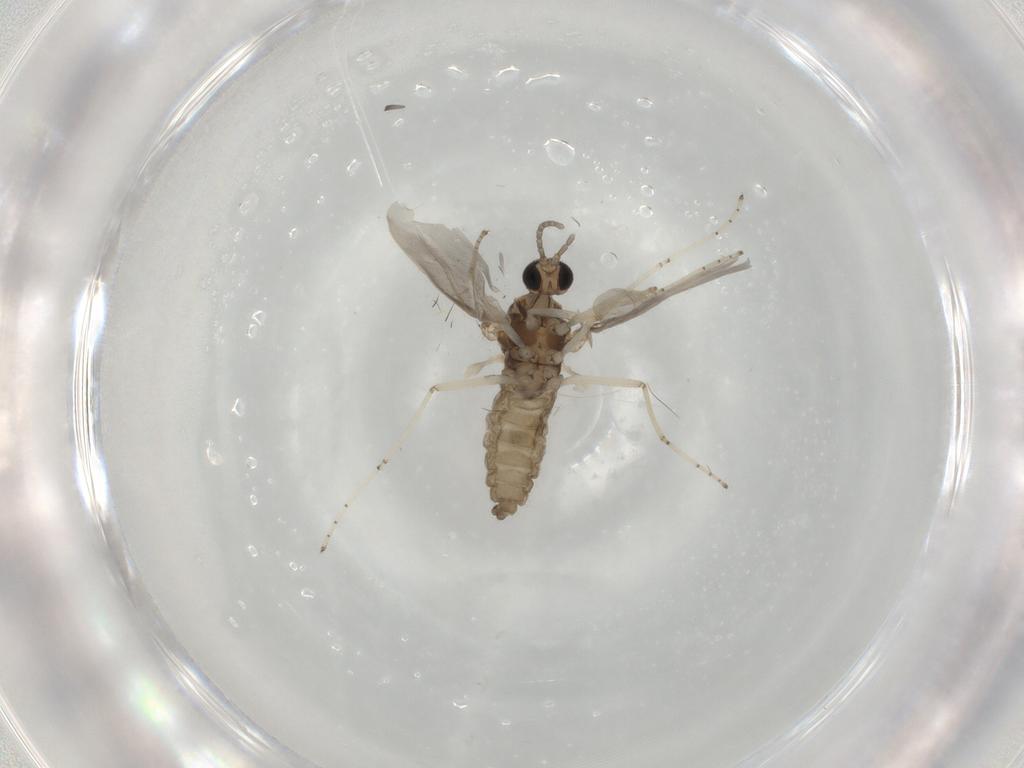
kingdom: Animalia
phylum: Arthropoda
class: Insecta
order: Diptera
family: Cecidomyiidae
